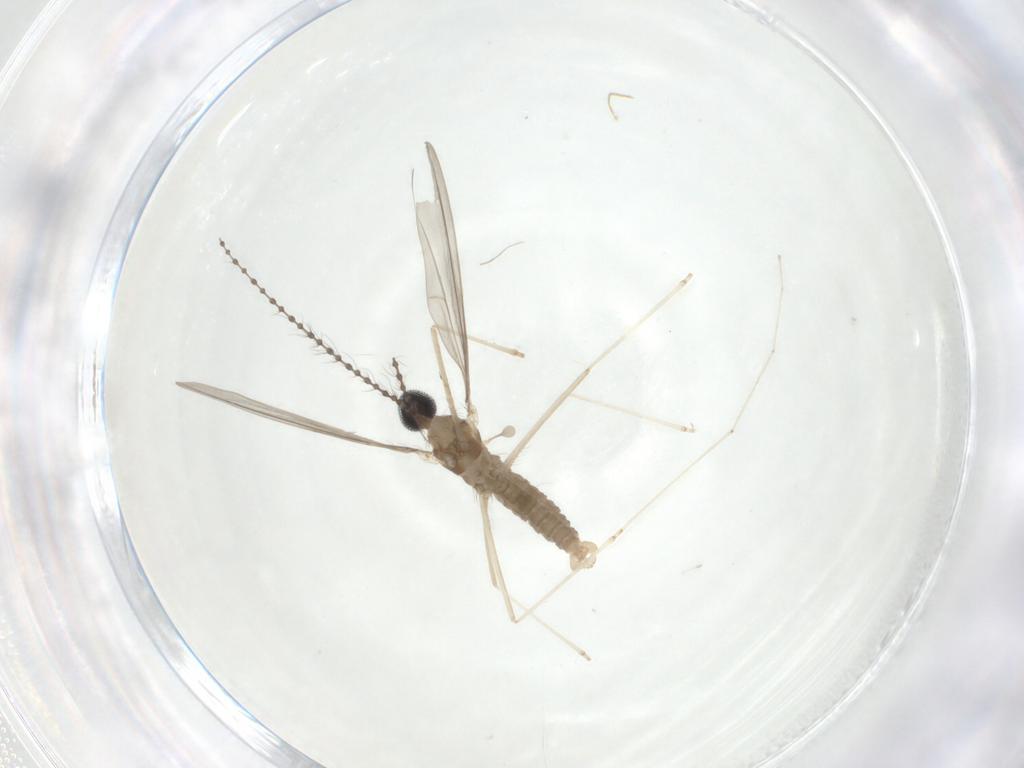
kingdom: Animalia
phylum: Arthropoda
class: Insecta
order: Diptera
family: Cecidomyiidae
